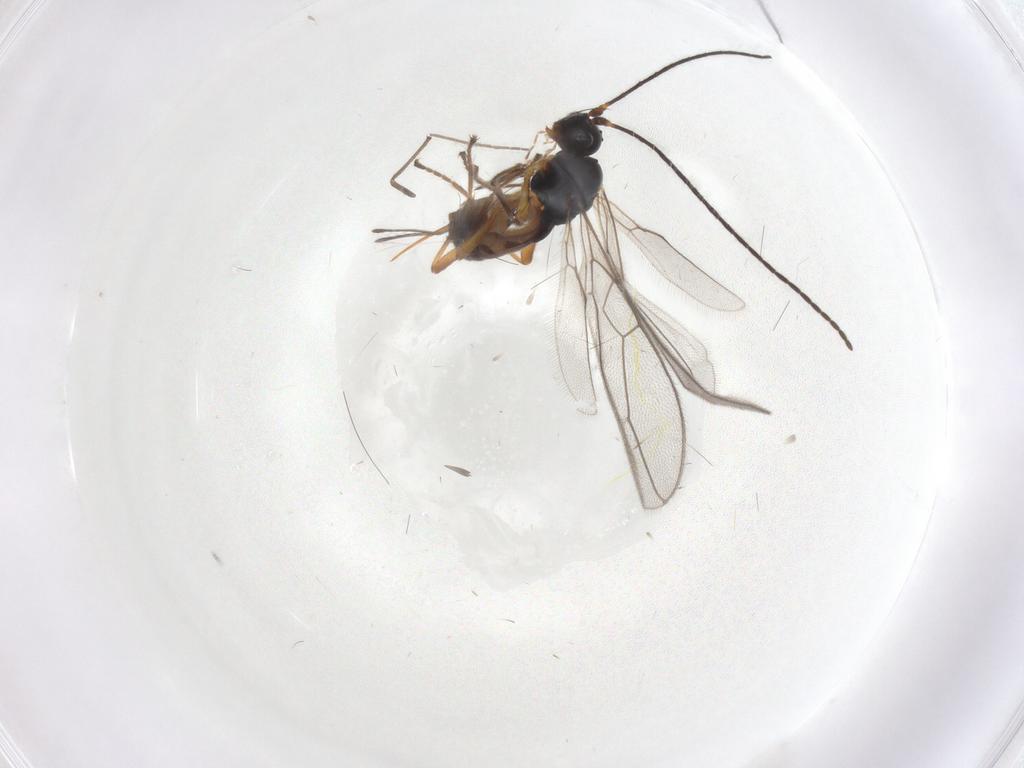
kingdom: Animalia
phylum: Arthropoda
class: Insecta
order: Hymenoptera
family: Braconidae
